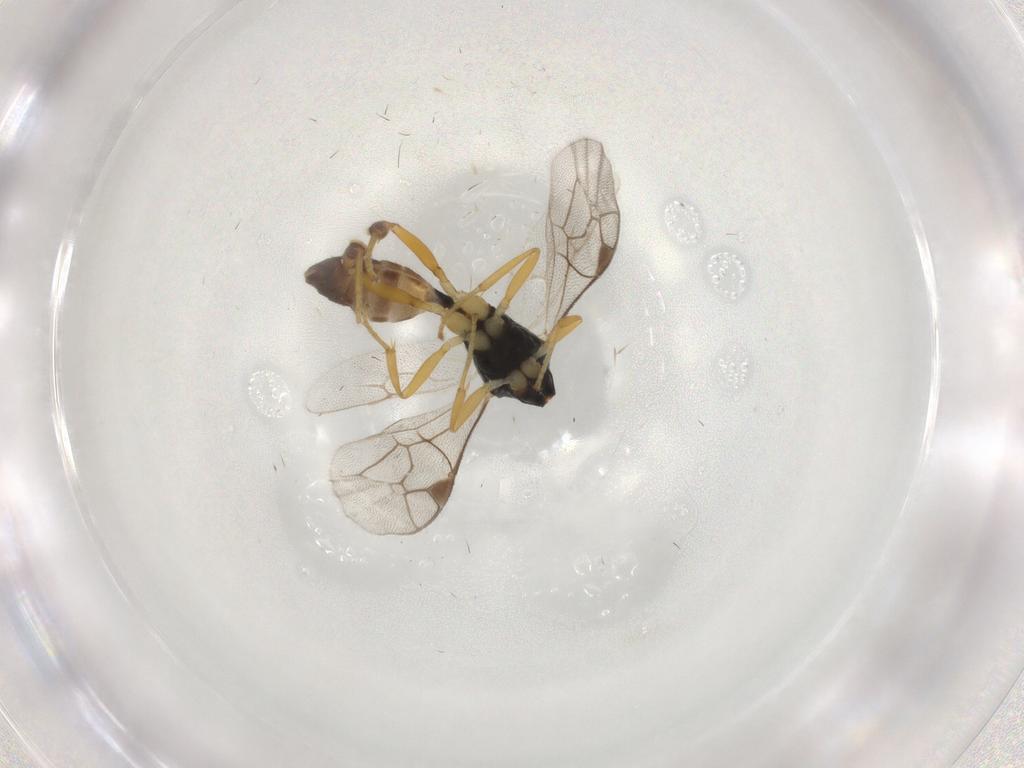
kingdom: Animalia
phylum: Arthropoda
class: Insecta
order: Hymenoptera
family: Ichneumonidae
